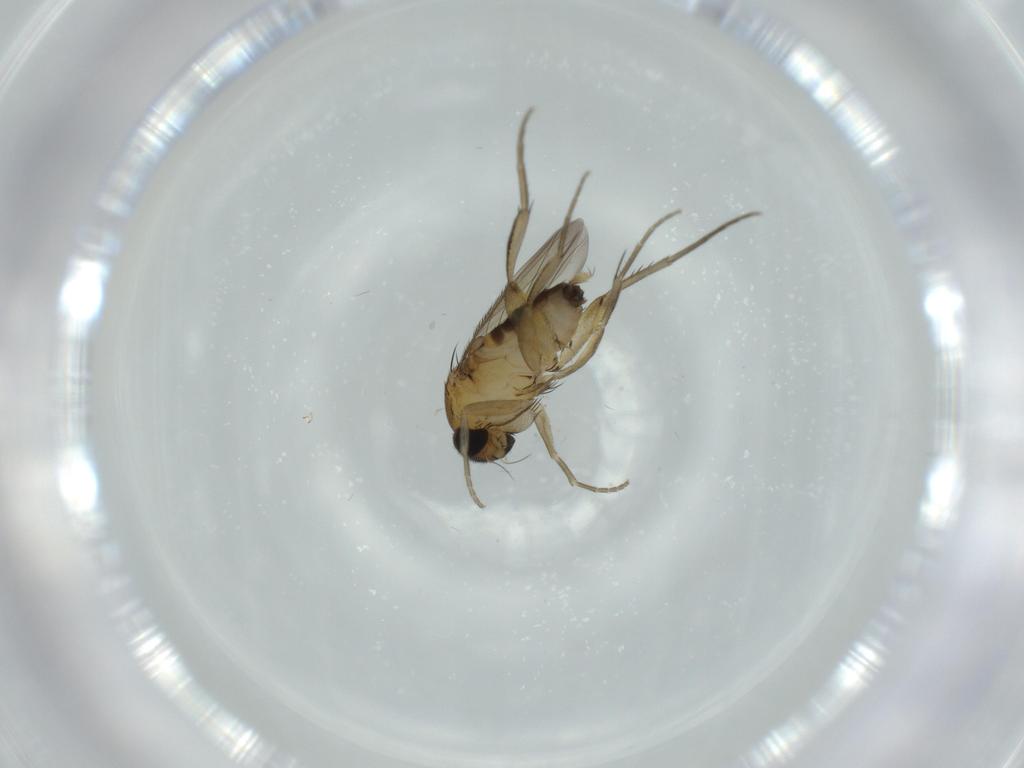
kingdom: Animalia
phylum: Arthropoda
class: Insecta
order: Diptera
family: Phoridae
